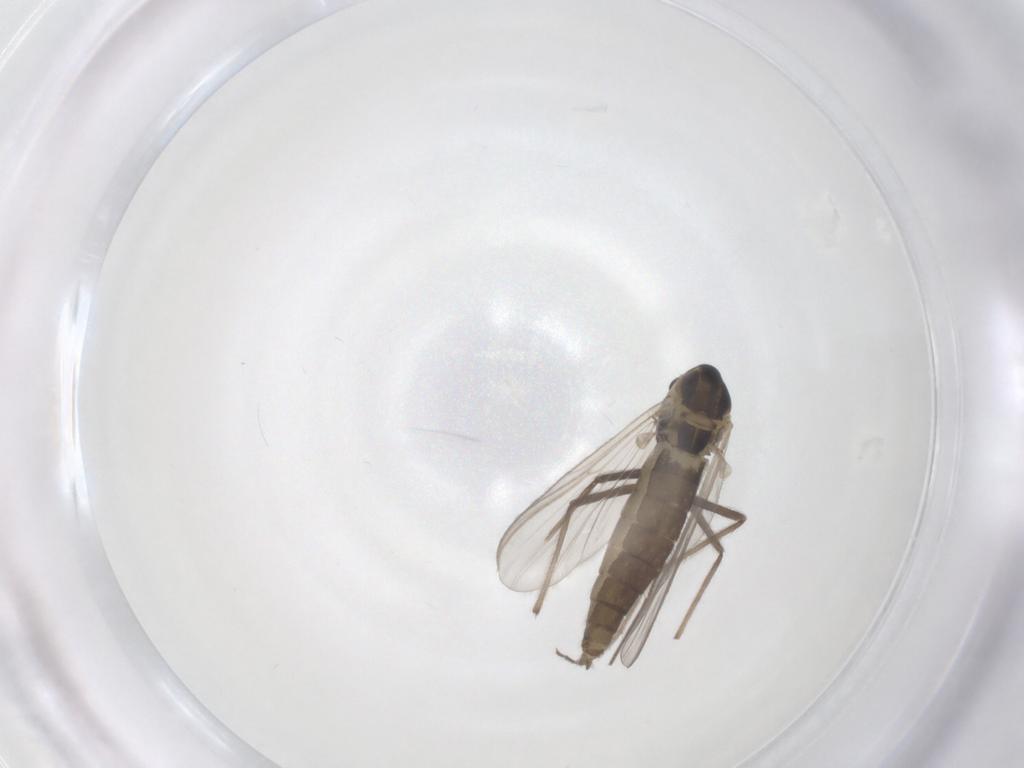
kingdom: Animalia
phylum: Arthropoda
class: Insecta
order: Diptera
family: Chironomidae
